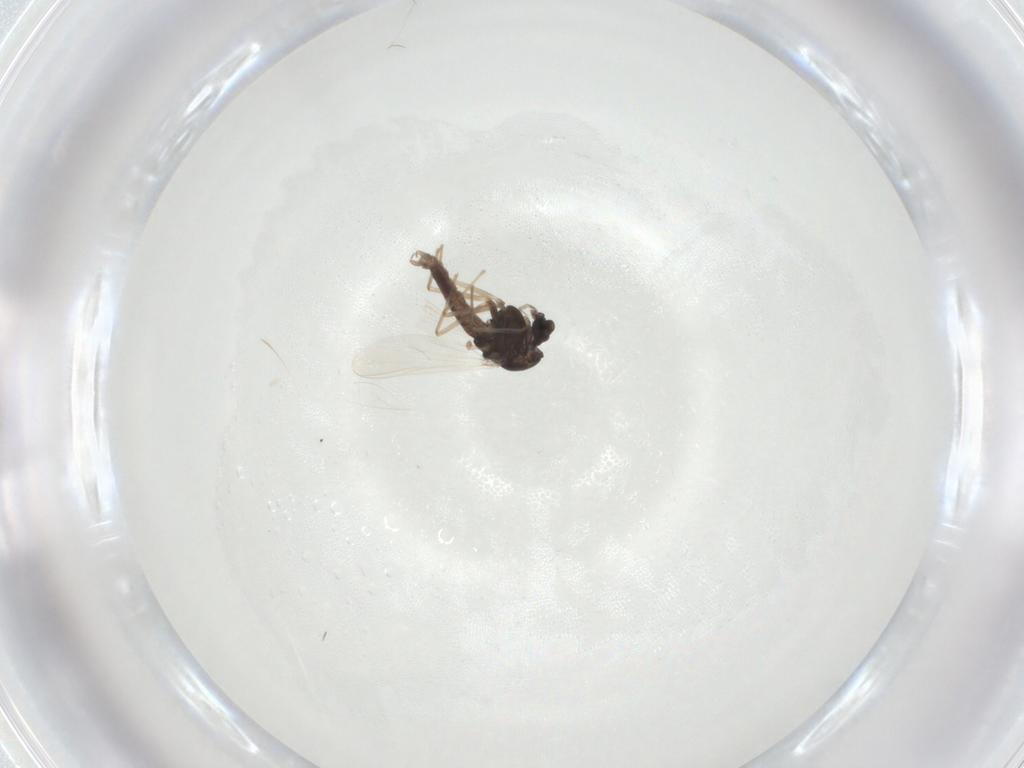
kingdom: Animalia
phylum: Arthropoda
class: Insecta
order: Diptera
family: Chironomidae
